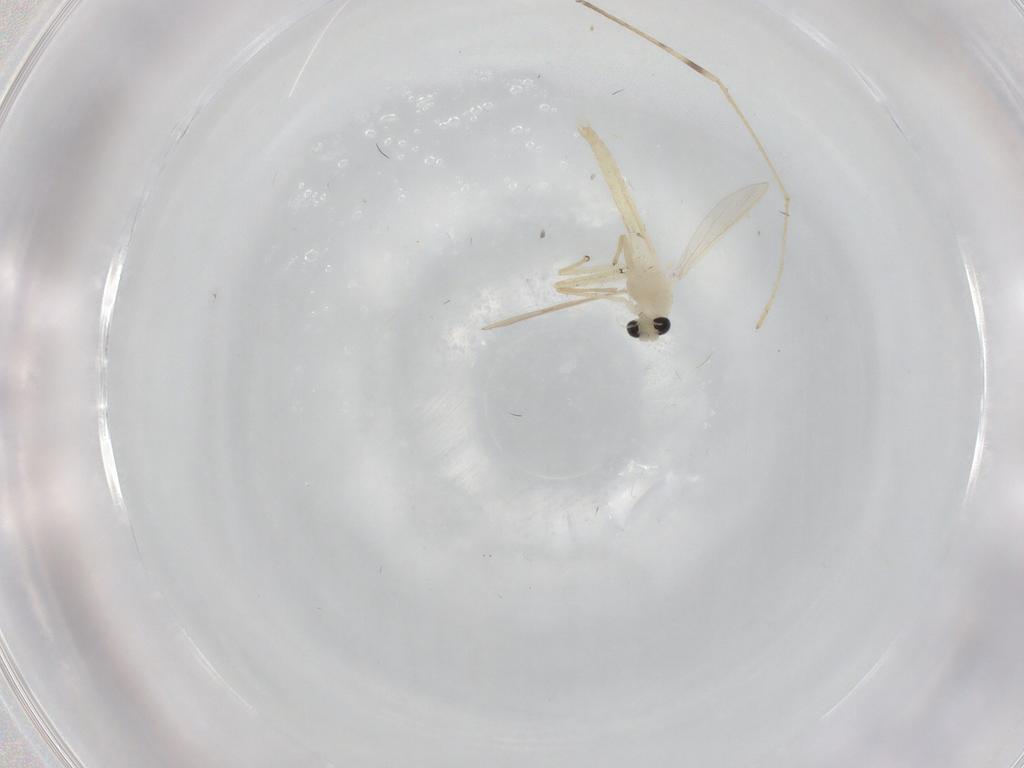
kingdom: Animalia
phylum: Arthropoda
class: Insecta
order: Diptera
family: Chironomidae
